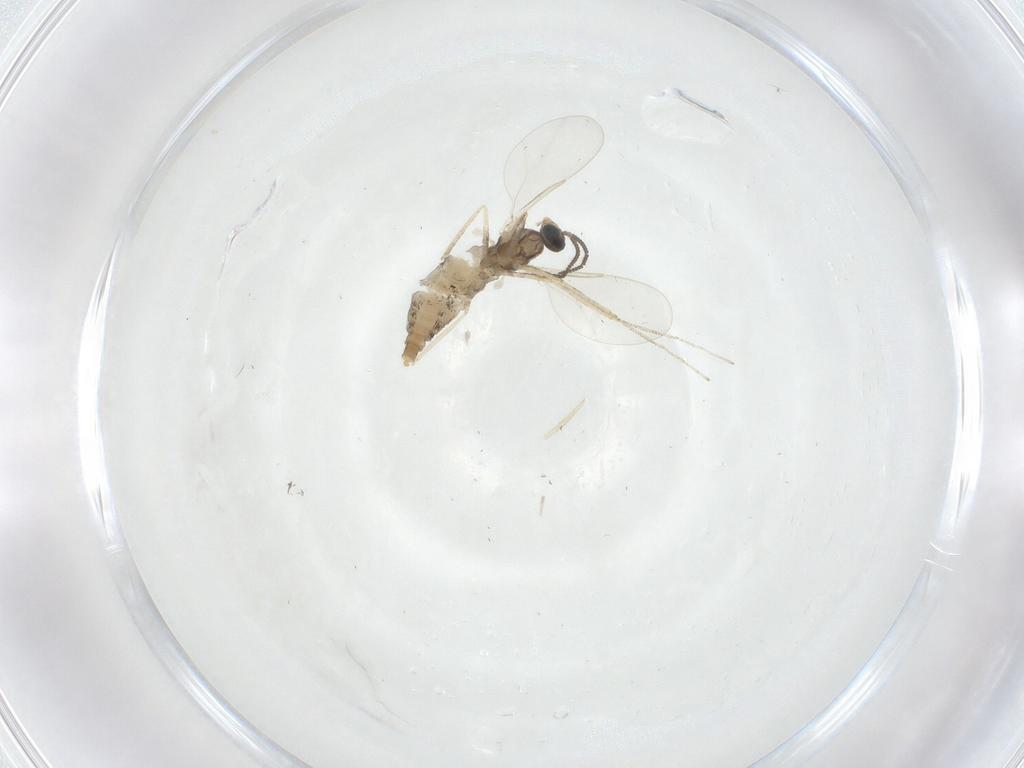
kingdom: Animalia
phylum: Arthropoda
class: Insecta
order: Diptera
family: Cecidomyiidae
